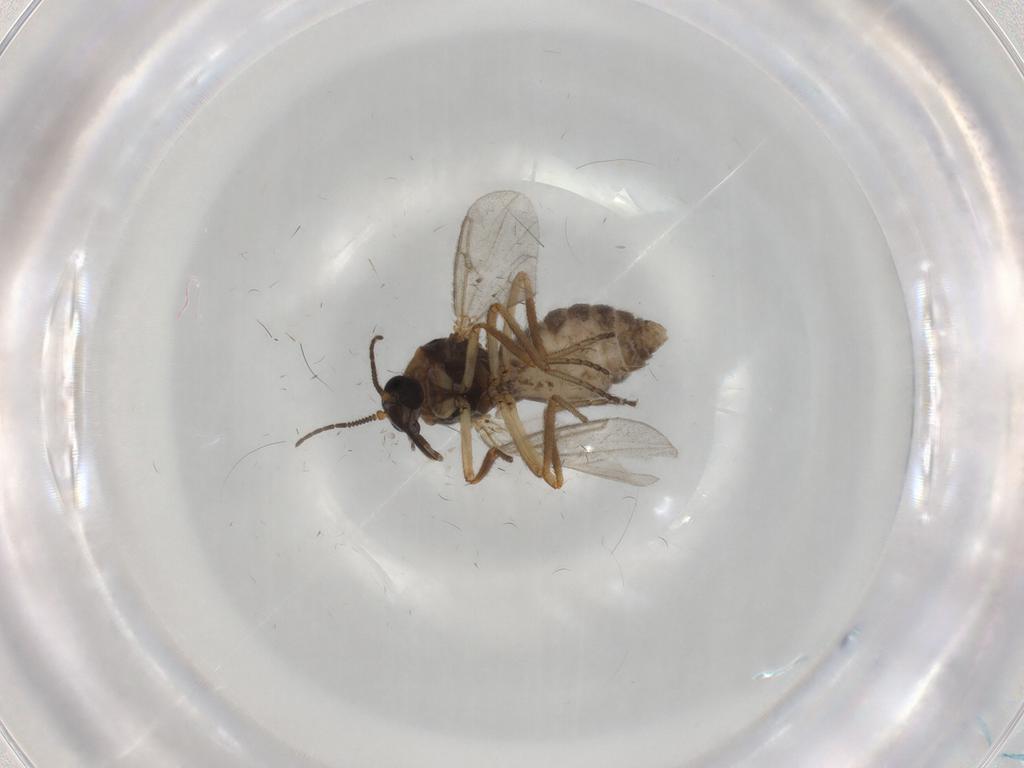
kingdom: Animalia
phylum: Arthropoda
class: Insecta
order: Diptera
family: Ceratopogonidae
